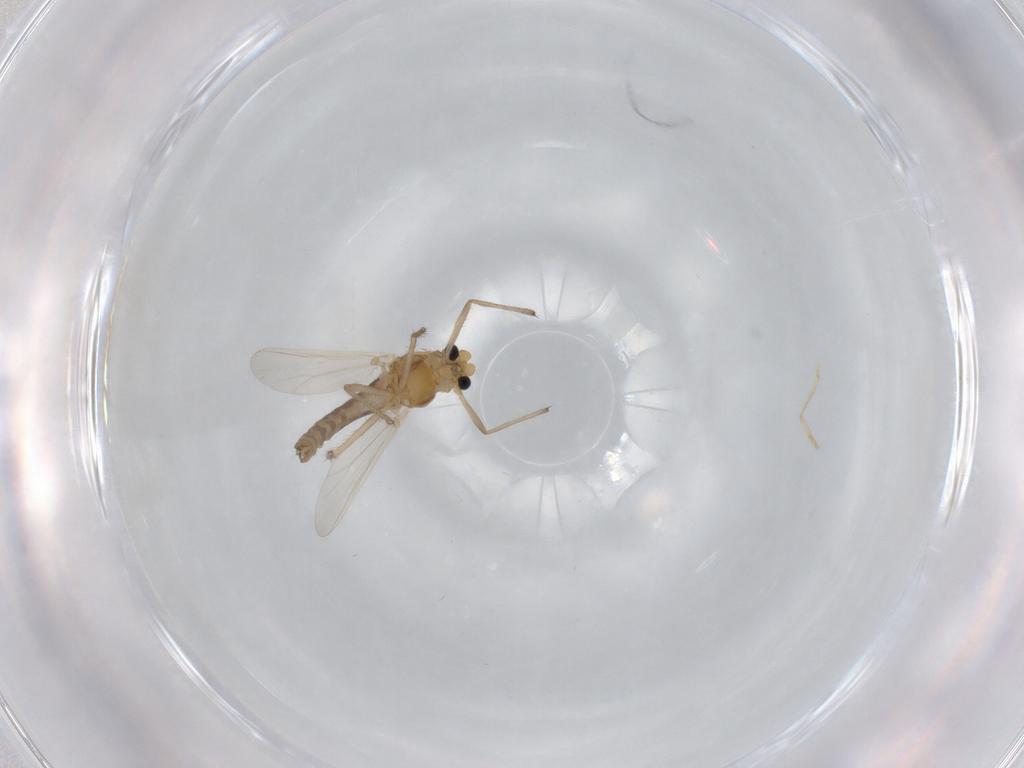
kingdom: Animalia
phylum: Arthropoda
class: Insecta
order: Diptera
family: Chironomidae
